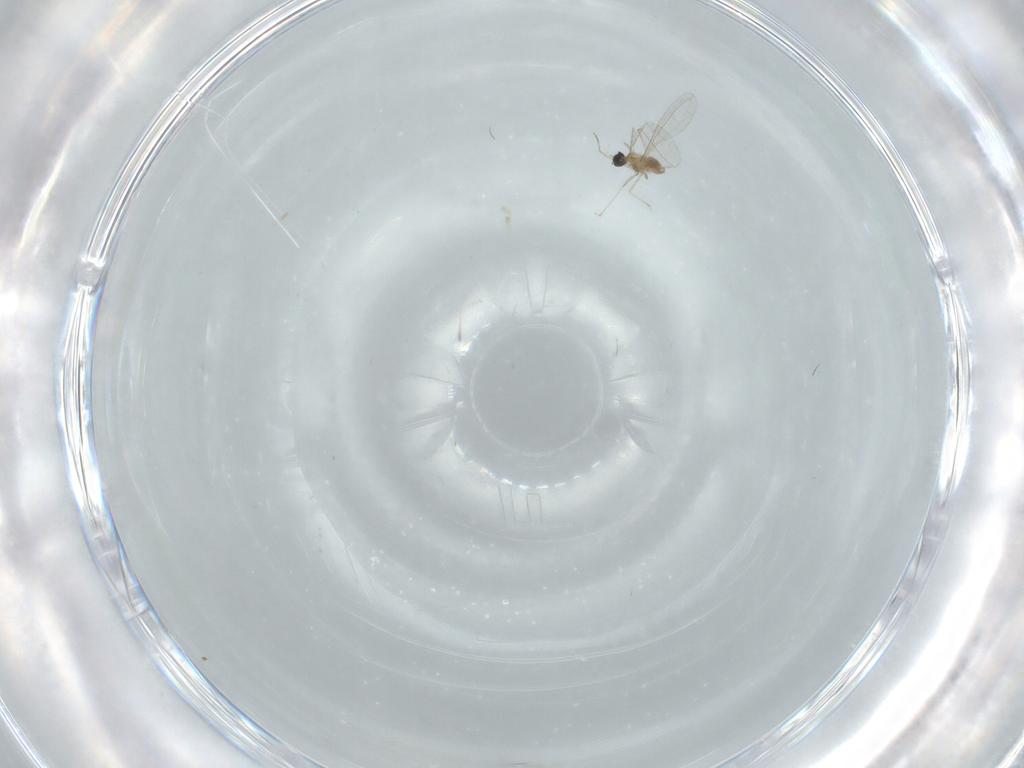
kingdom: Animalia
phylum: Arthropoda
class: Insecta
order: Diptera
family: Cecidomyiidae
